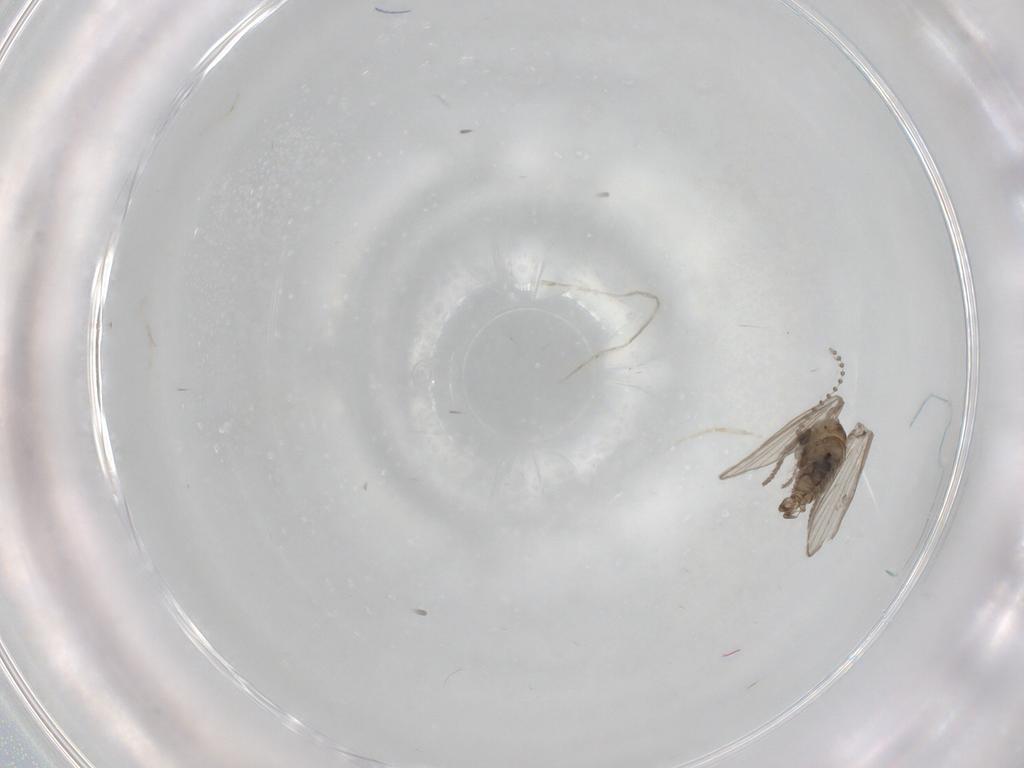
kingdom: Animalia
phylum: Arthropoda
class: Insecta
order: Diptera
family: Psychodidae
